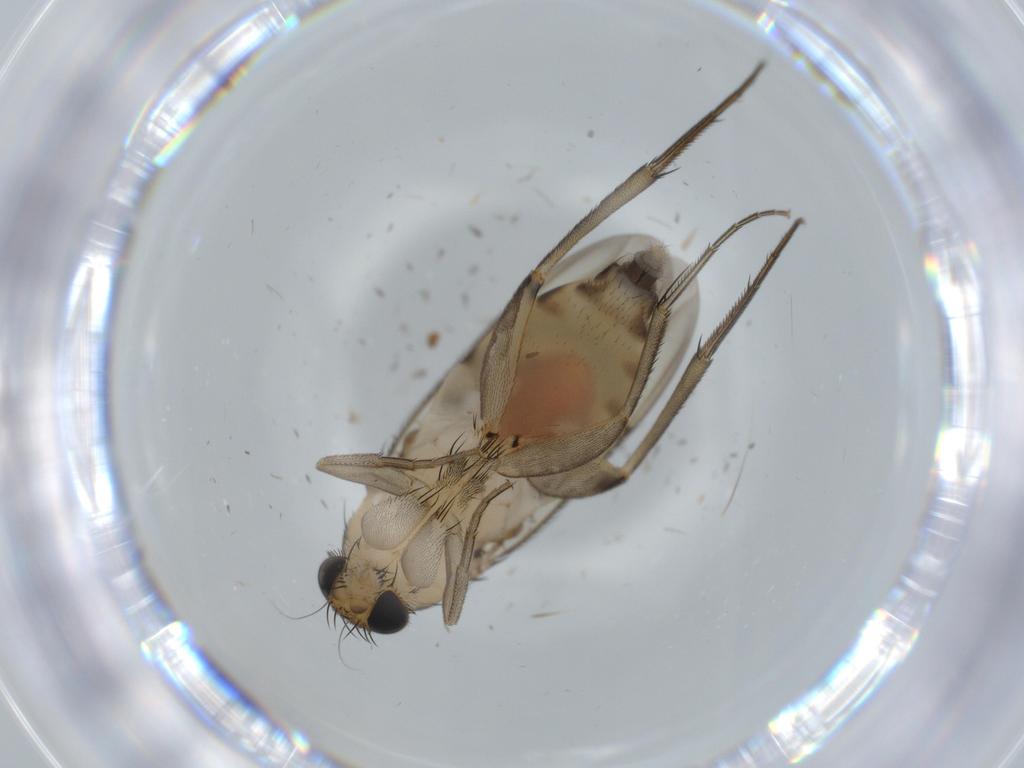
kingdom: Animalia
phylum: Arthropoda
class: Insecta
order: Diptera
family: Phoridae
